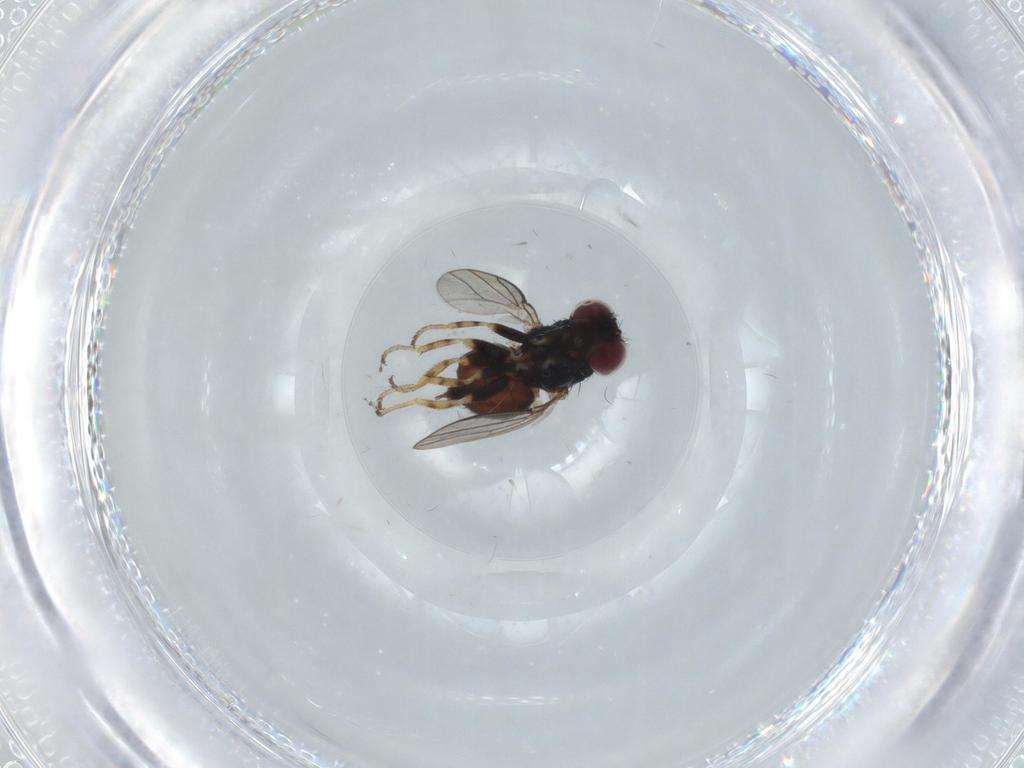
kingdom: Animalia
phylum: Arthropoda
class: Insecta
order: Diptera
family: Chloropidae
